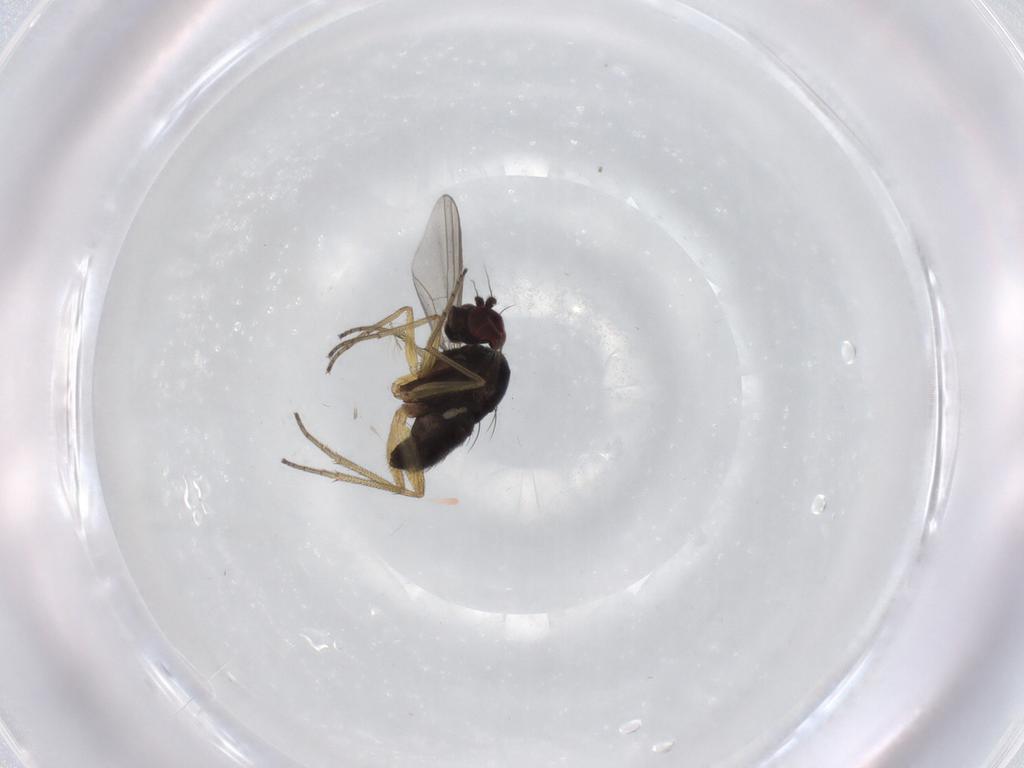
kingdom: Animalia
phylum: Arthropoda
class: Insecta
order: Diptera
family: Dolichopodidae
